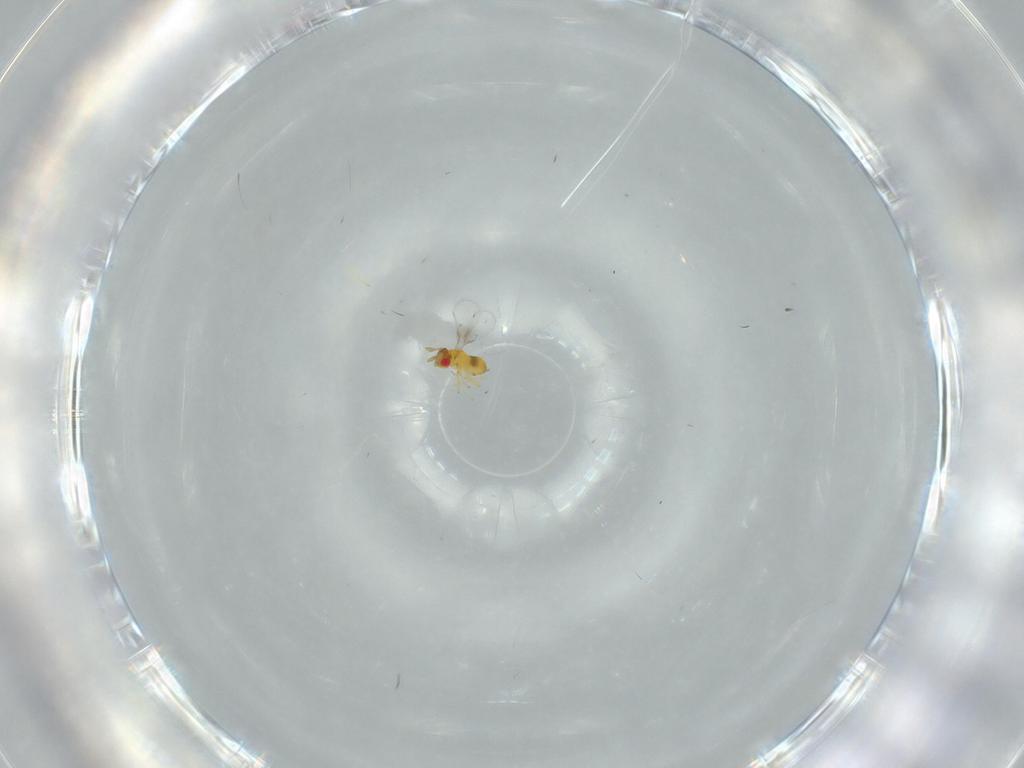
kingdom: Animalia
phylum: Arthropoda
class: Insecta
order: Hymenoptera
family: Trichogrammatidae
